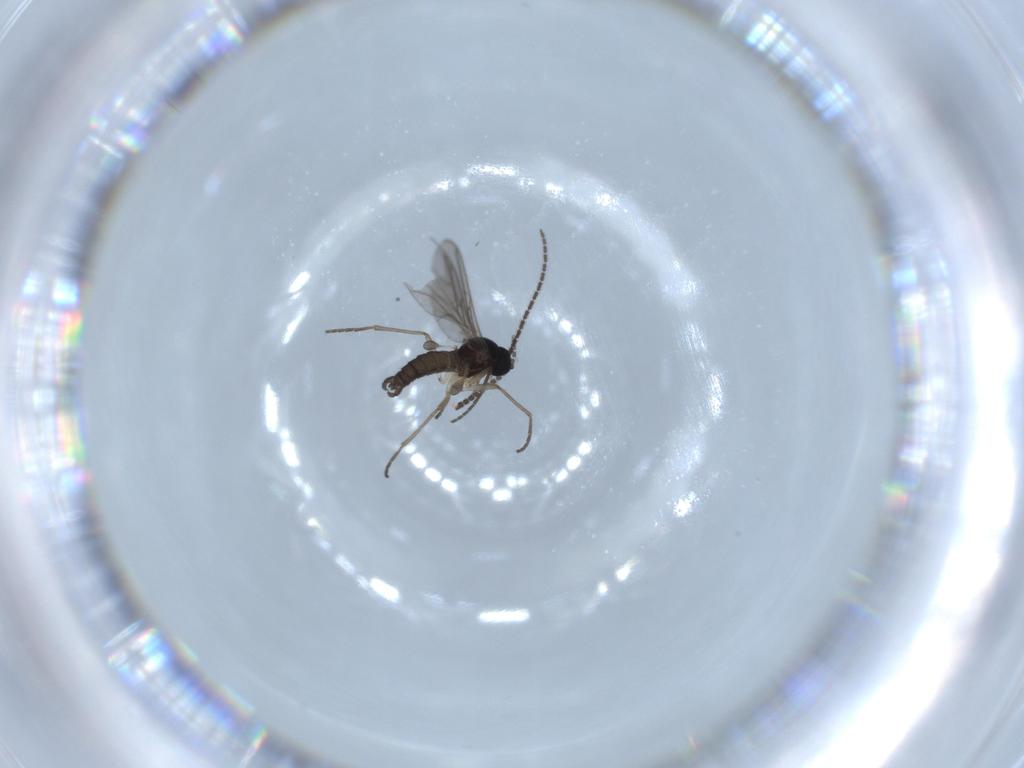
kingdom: Animalia
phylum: Arthropoda
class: Insecta
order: Diptera
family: Sciaridae
